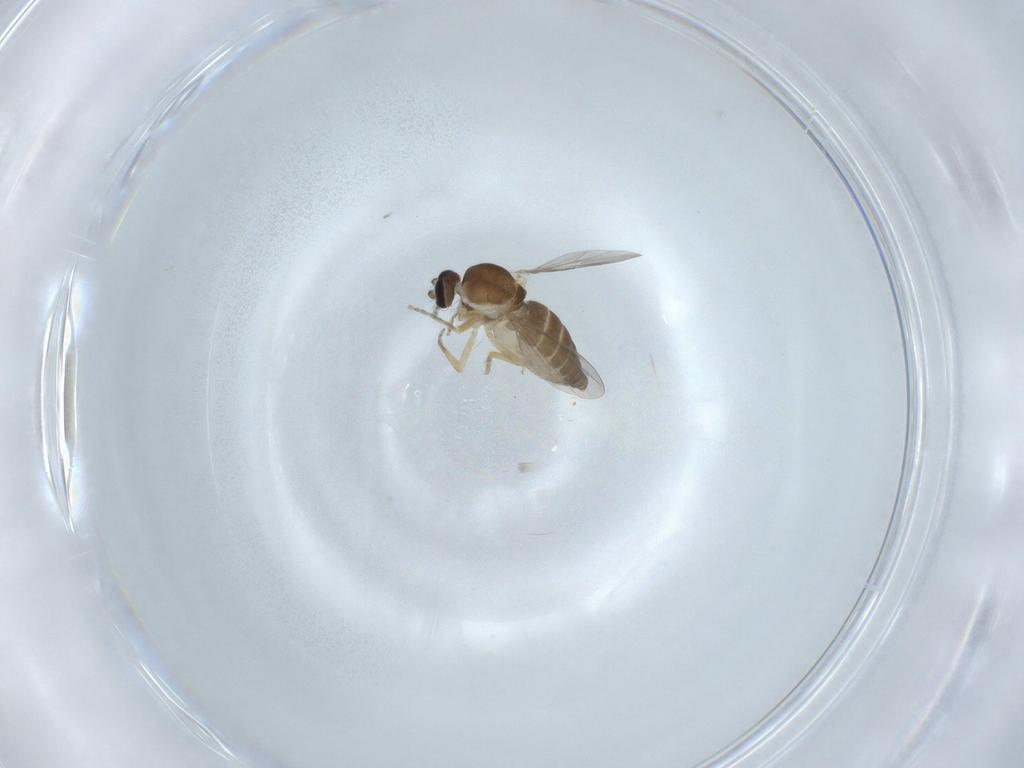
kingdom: Animalia
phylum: Arthropoda
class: Insecta
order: Diptera
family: Ceratopogonidae
